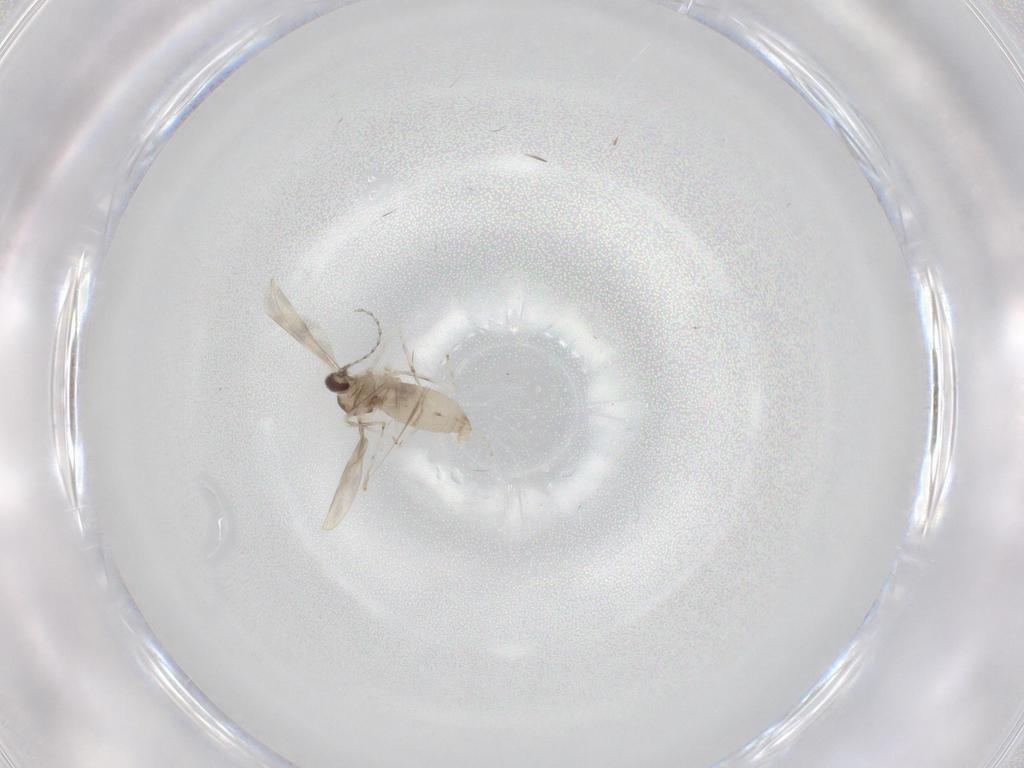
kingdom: Animalia
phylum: Arthropoda
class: Insecta
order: Diptera
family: Cecidomyiidae
